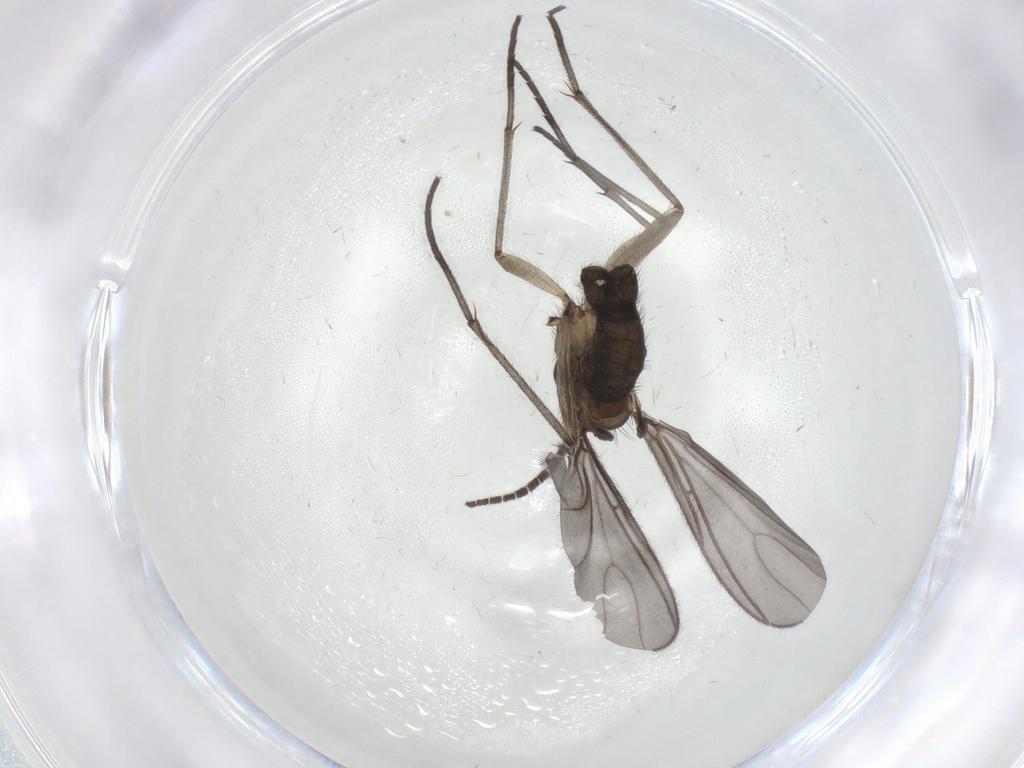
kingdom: Animalia
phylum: Arthropoda
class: Insecta
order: Diptera
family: Sciaridae
